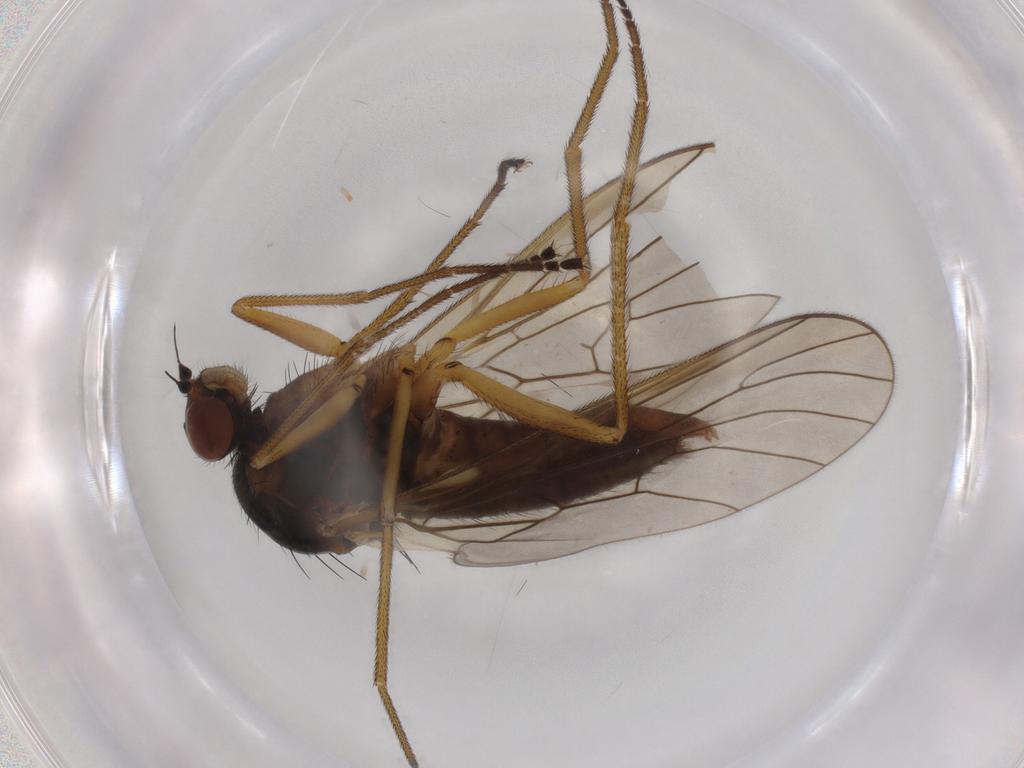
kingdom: Animalia
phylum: Arthropoda
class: Insecta
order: Diptera
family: Brachystomatidae
